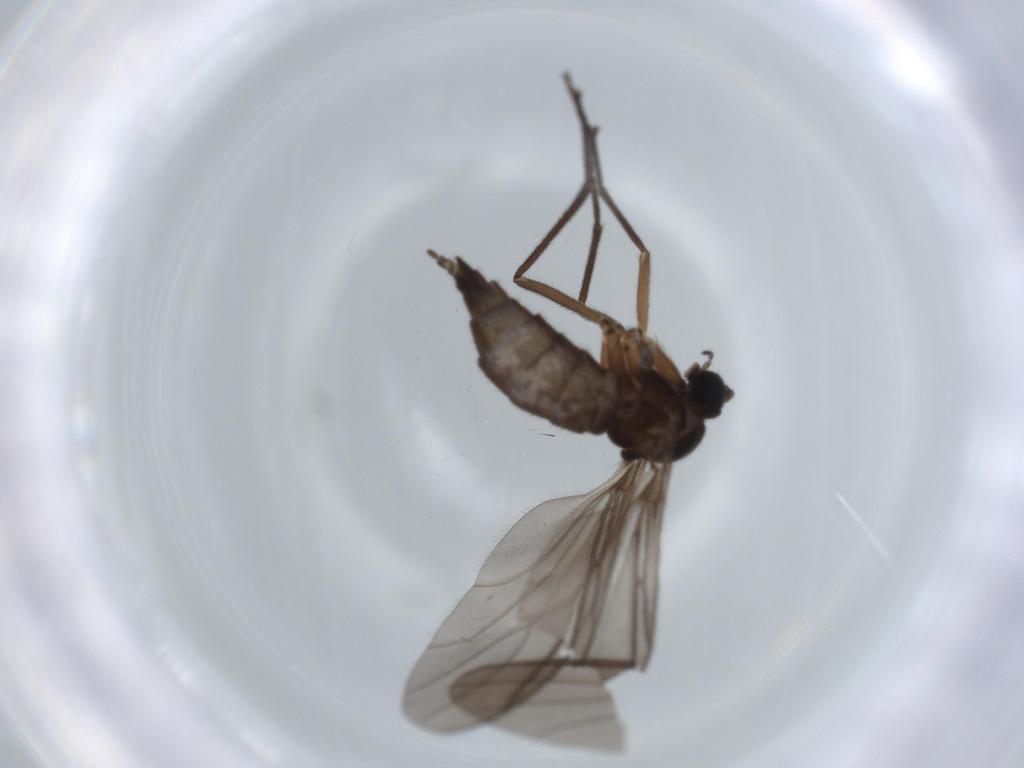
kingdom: Animalia
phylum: Arthropoda
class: Insecta
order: Diptera
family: Sciaridae
